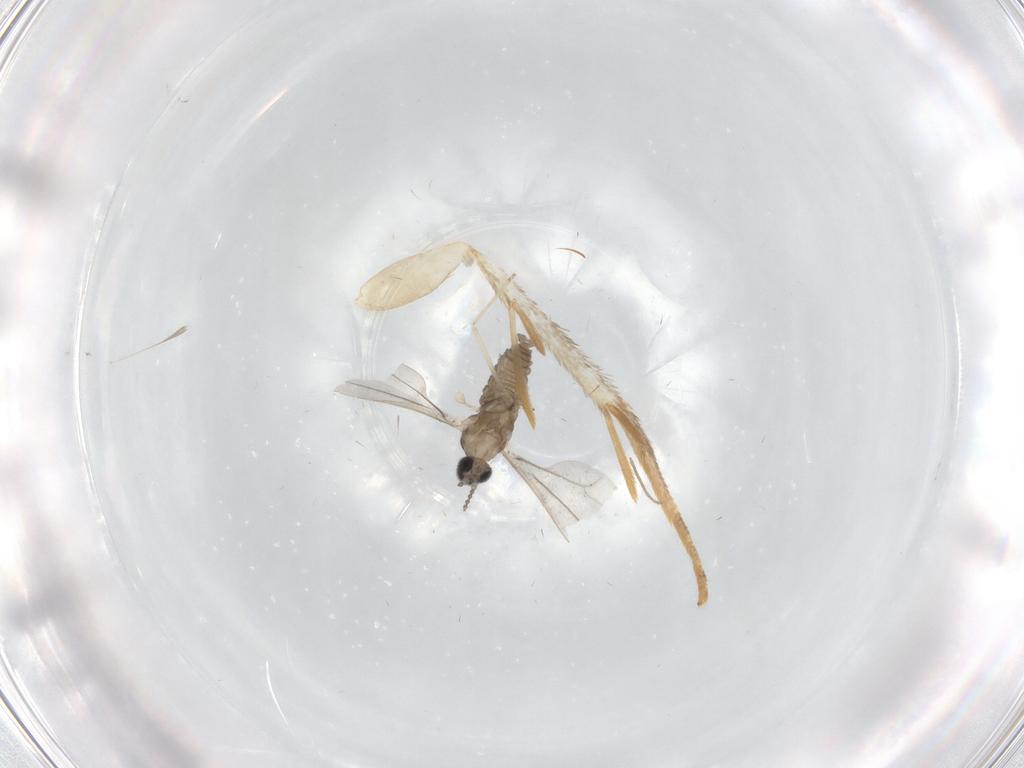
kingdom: Animalia
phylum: Arthropoda
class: Insecta
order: Diptera
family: Cecidomyiidae
